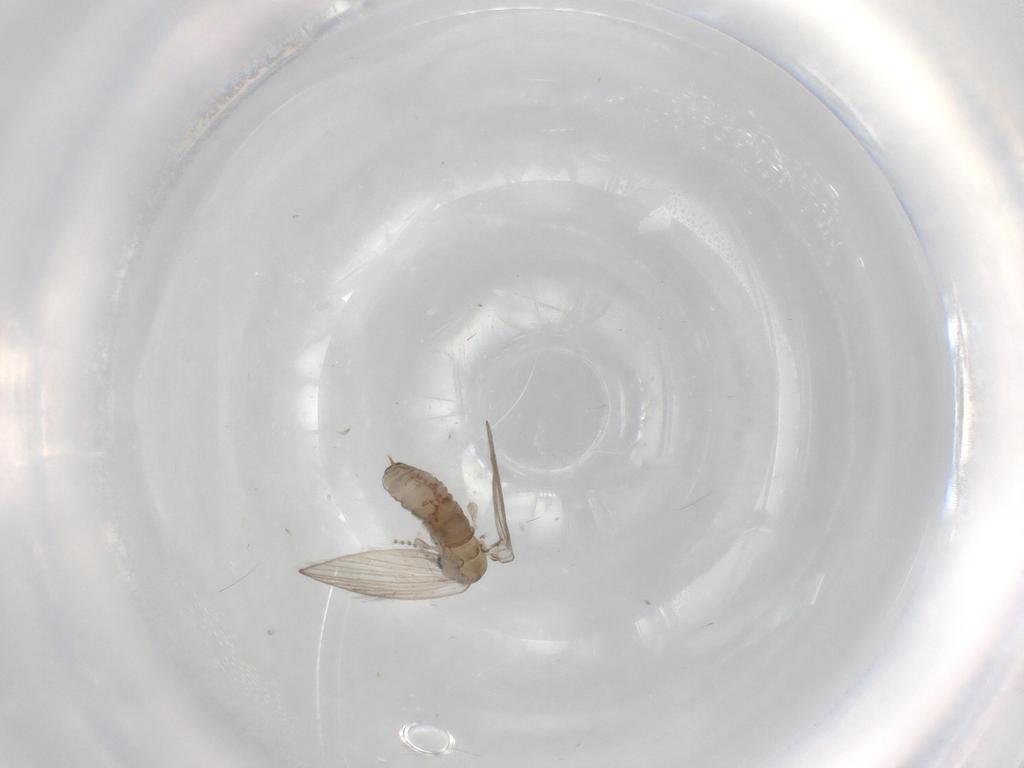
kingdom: Animalia
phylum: Arthropoda
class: Insecta
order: Diptera
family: Psychodidae
